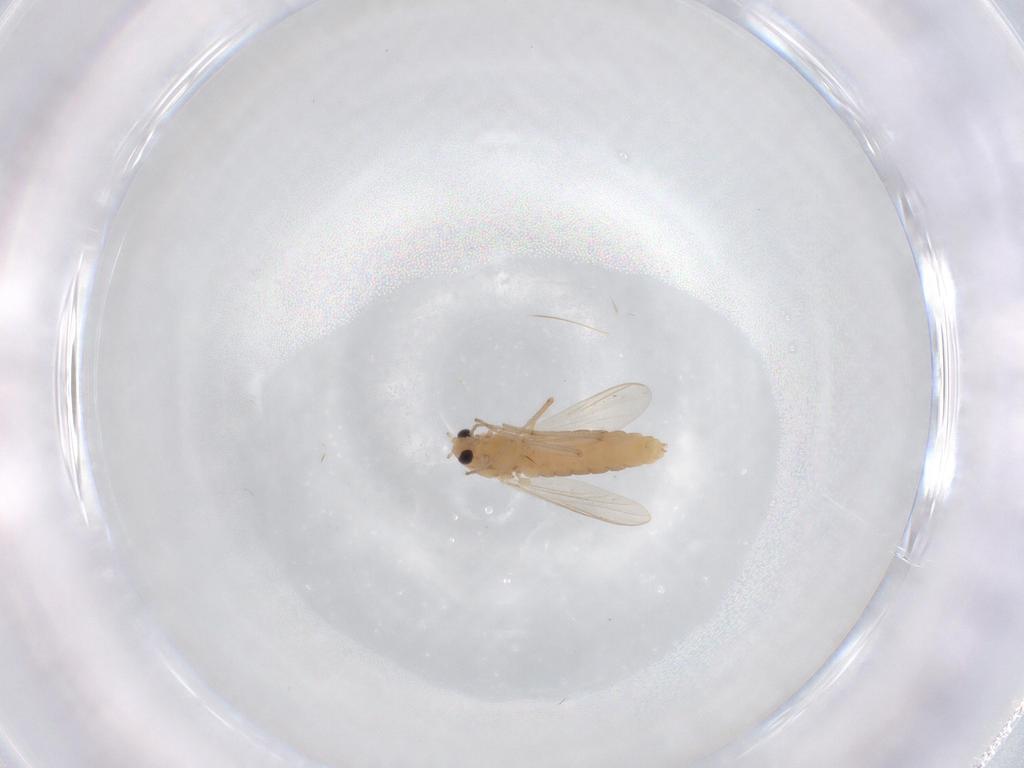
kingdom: Animalia
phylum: Arthropoda
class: Insecta
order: Diptera
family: Chironomidae
